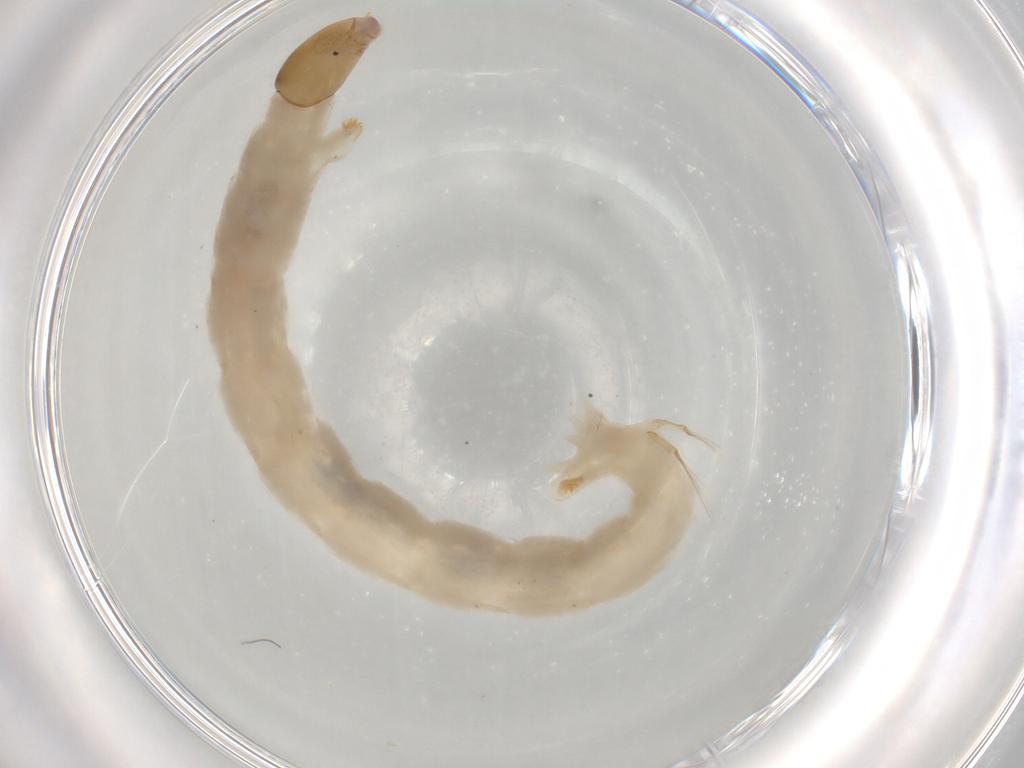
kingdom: Animalia
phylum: Arthropoda
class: Insecta
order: Diptera
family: Chironomidae
